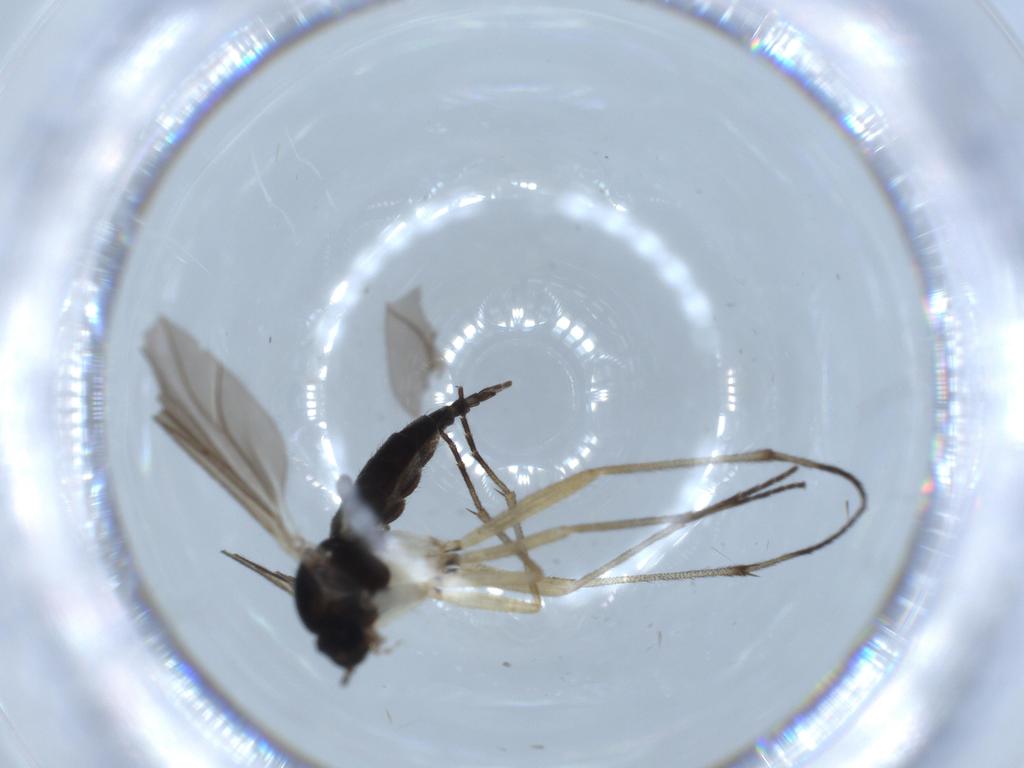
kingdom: Animalia
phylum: Arthropoda
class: Insecta
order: Diptera
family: Sciaridae
